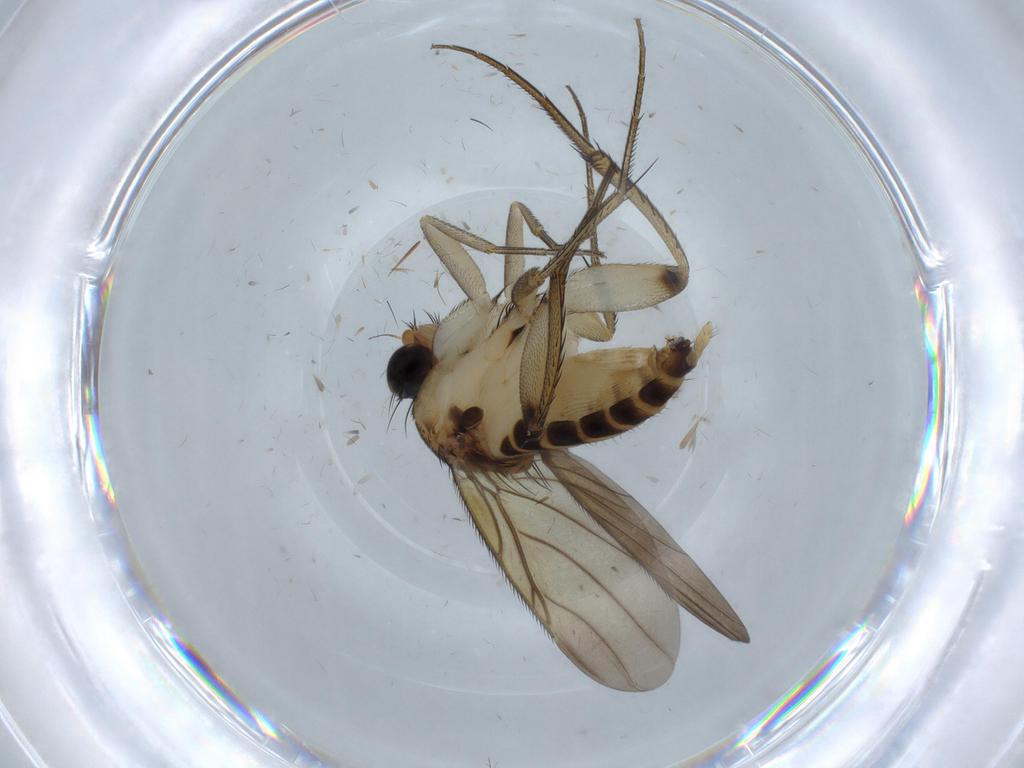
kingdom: Animalia
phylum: Arthropoda
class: Insecta
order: Diptera
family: Phoridae
